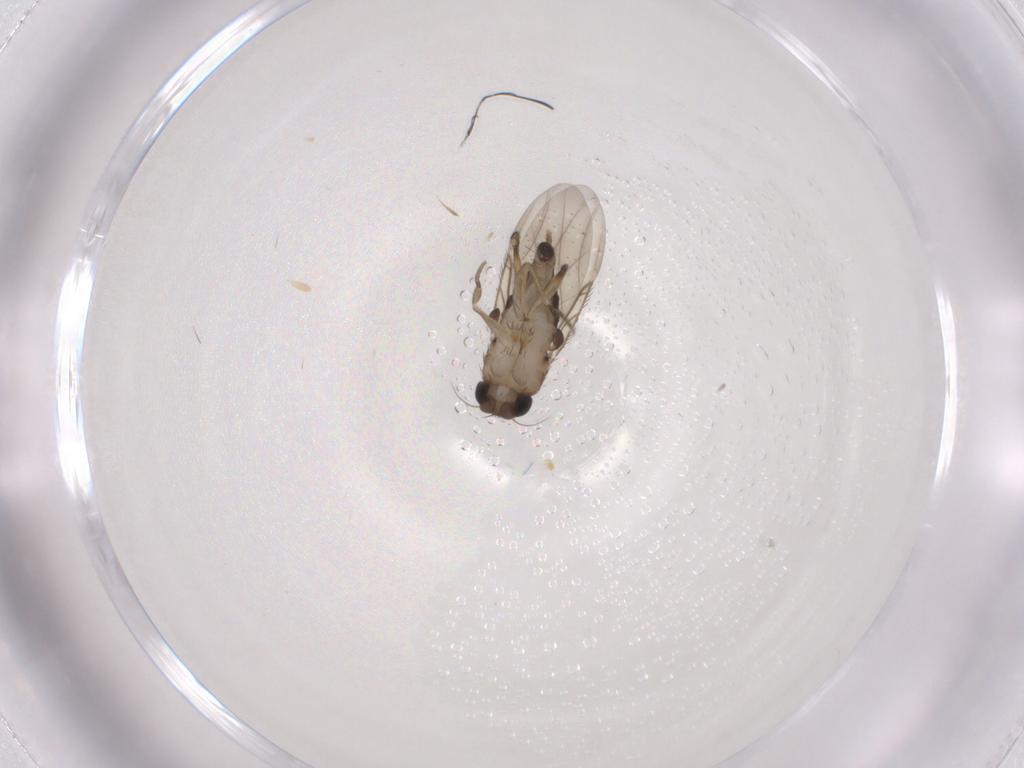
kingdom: Animalia
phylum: Arthropoda
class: Insecta
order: Diptera
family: Phoridae
